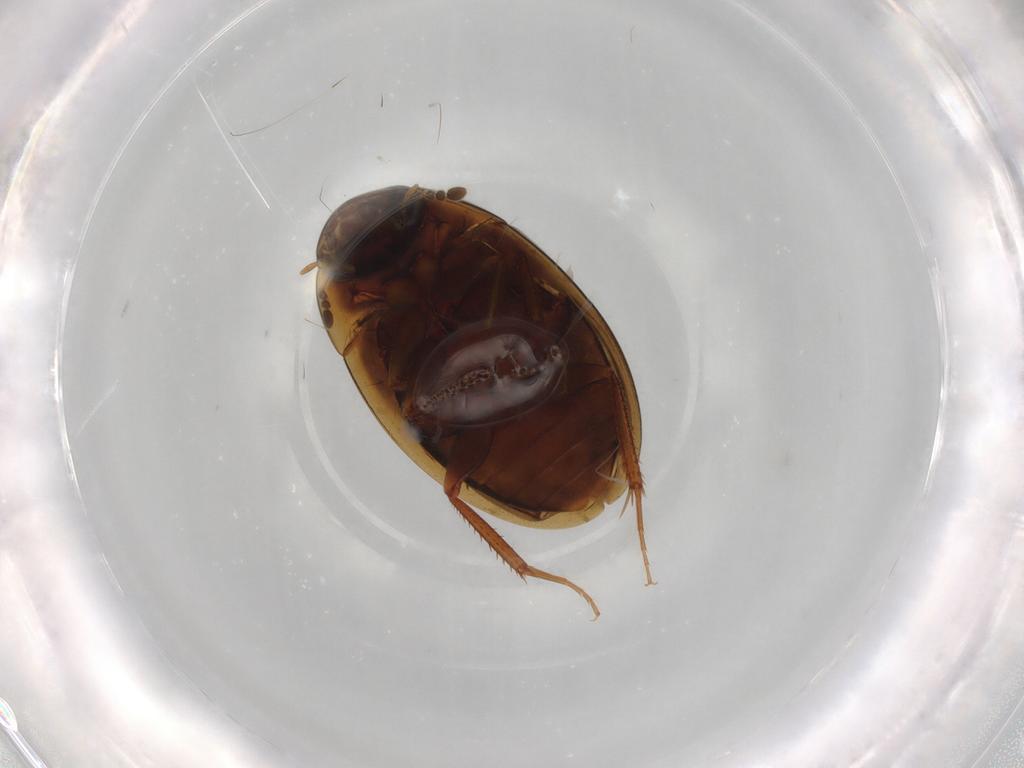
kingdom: Animalia
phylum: Arthropoda
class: Insecta
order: Coleoptera
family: Hydrophilidae
